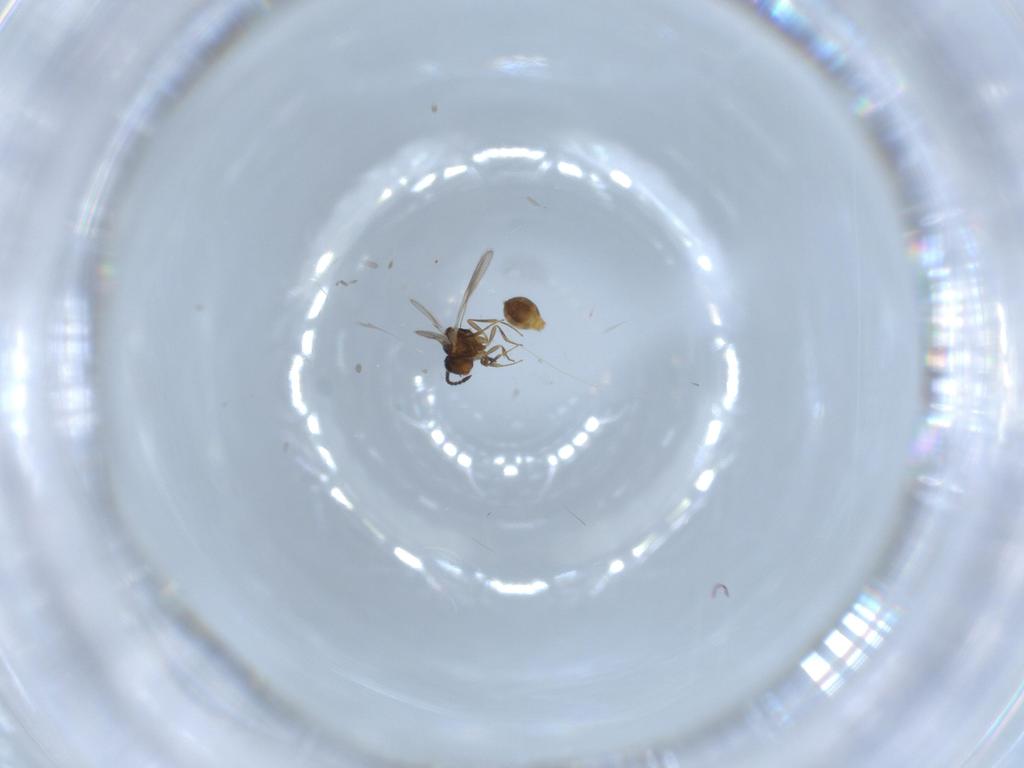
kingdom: Animalia
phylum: Arthropoda
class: Insecta
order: Hymenoptera
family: Scelionidae
